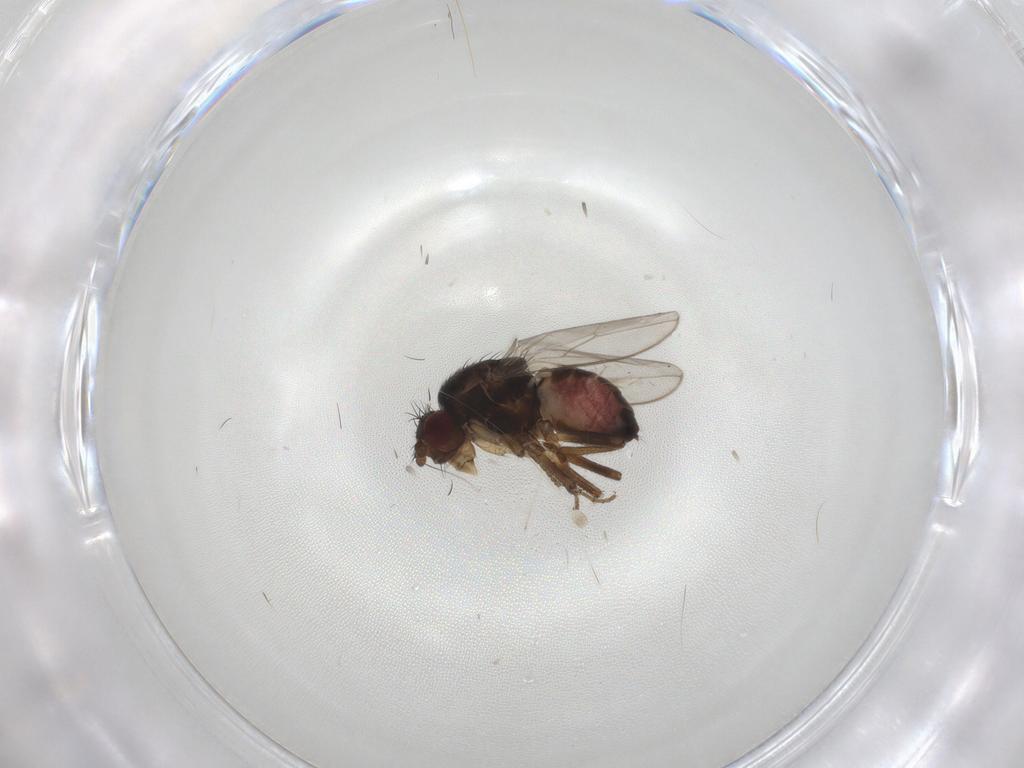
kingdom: Animalia
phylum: Arthropoda
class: Insecta
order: Diptera
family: Sphaeroceridae
